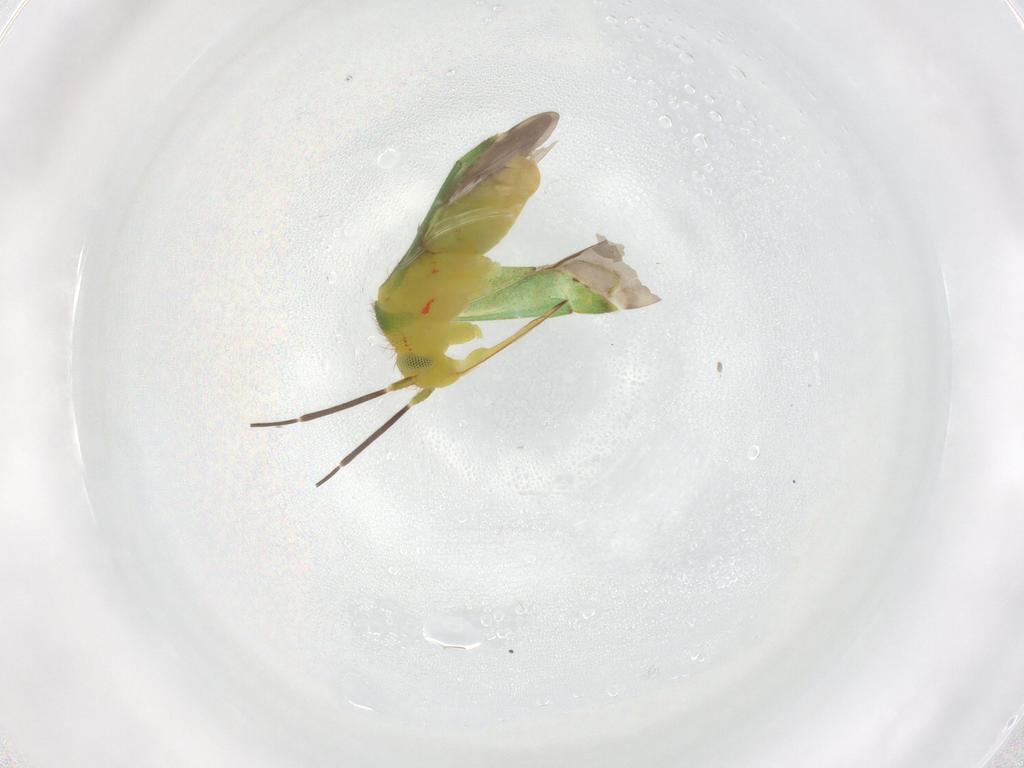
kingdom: Animalia
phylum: Arthropoda
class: Insecta
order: Hemiptera
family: Miridae
